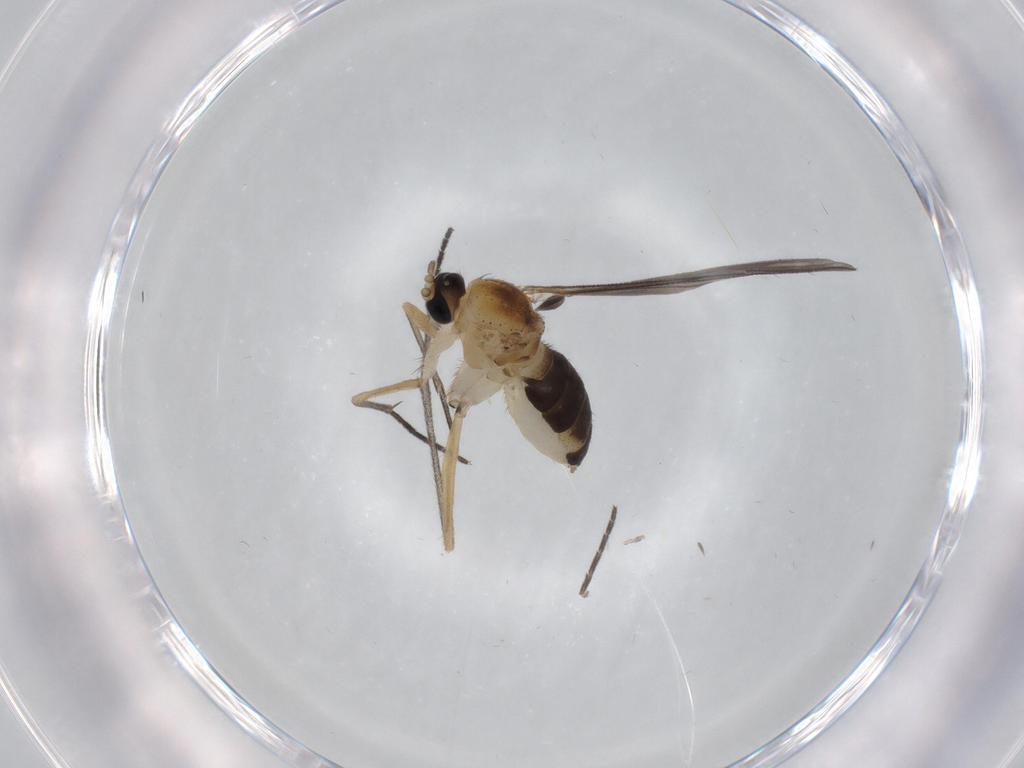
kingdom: Animalia
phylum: Arthropoda
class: Insecta
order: Diptera
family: Sciaridae
